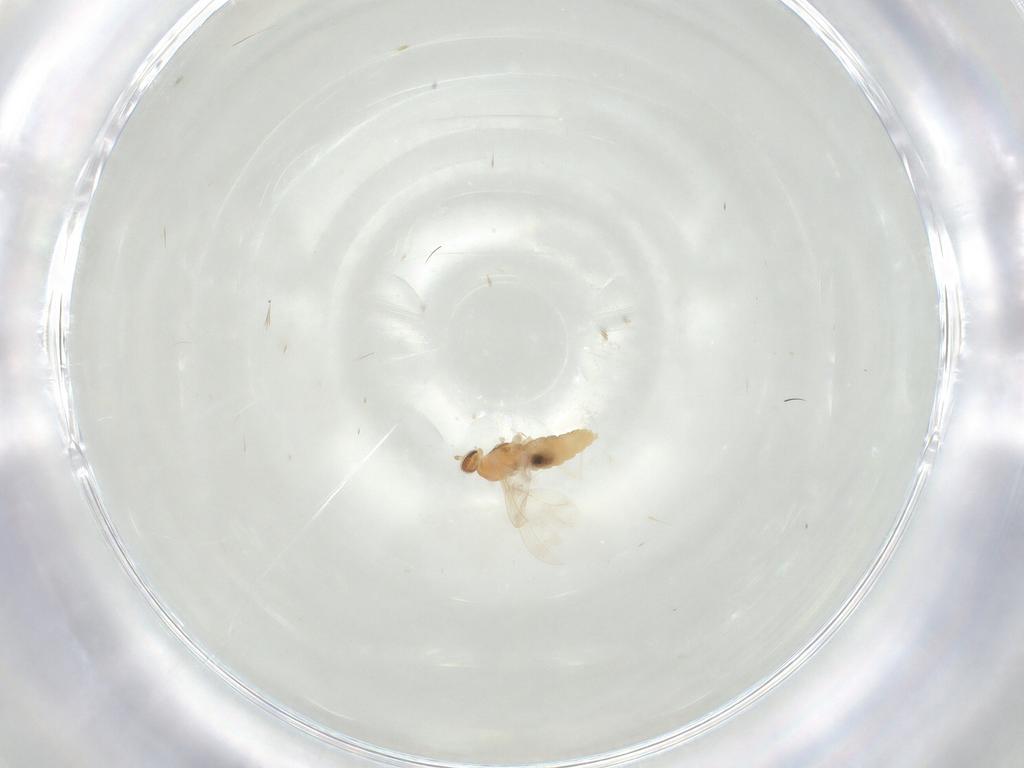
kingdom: Animalia
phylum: Arthropoda
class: Insecta
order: Diptera
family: Cecidomyiidae
